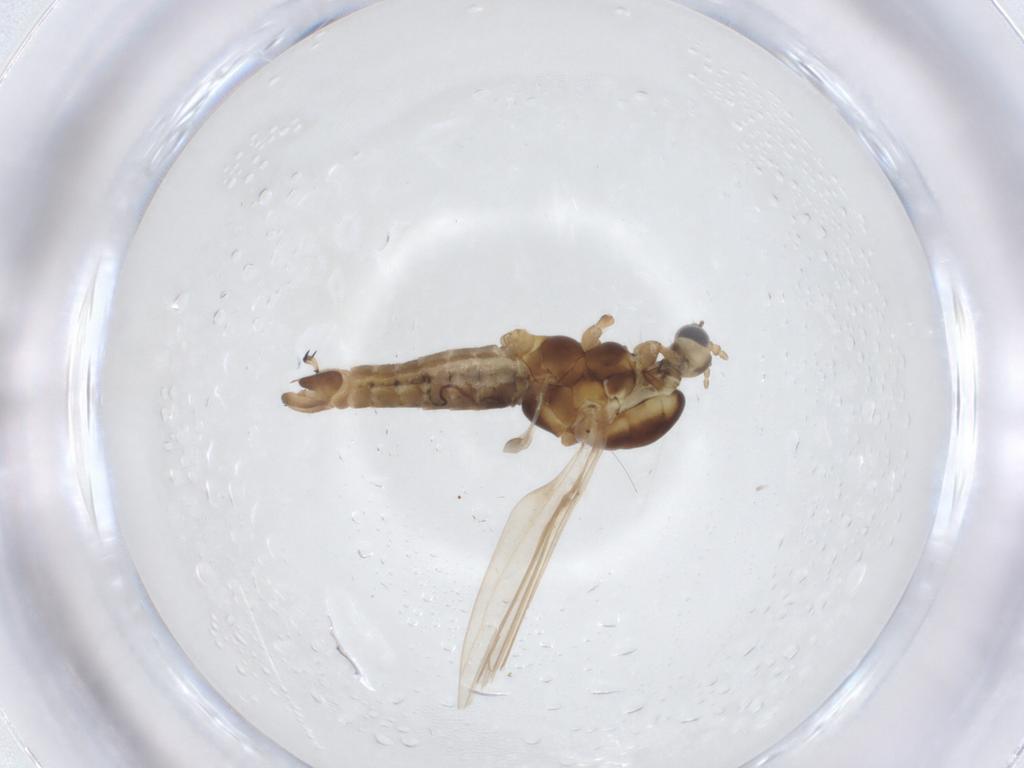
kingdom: Animalia
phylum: Arthropoda
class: Insecta
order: Diptera
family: Limoniidae
